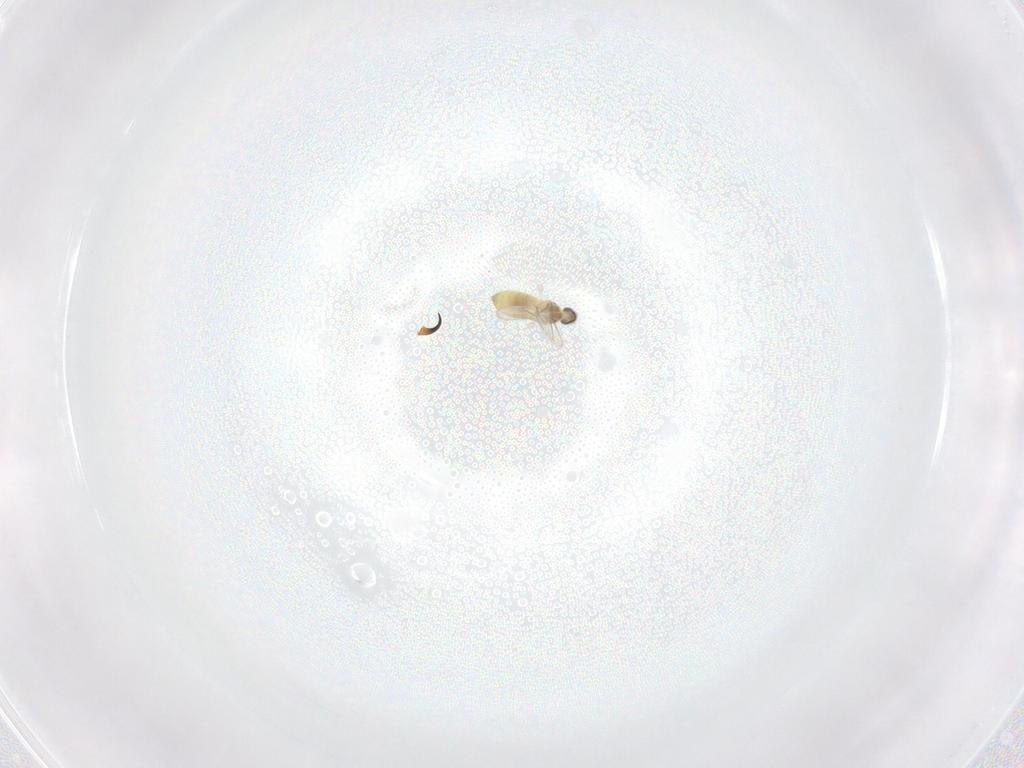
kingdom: Animalia
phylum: Arthropoda
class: Insecta
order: Diptera
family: Cecidomyiidae
